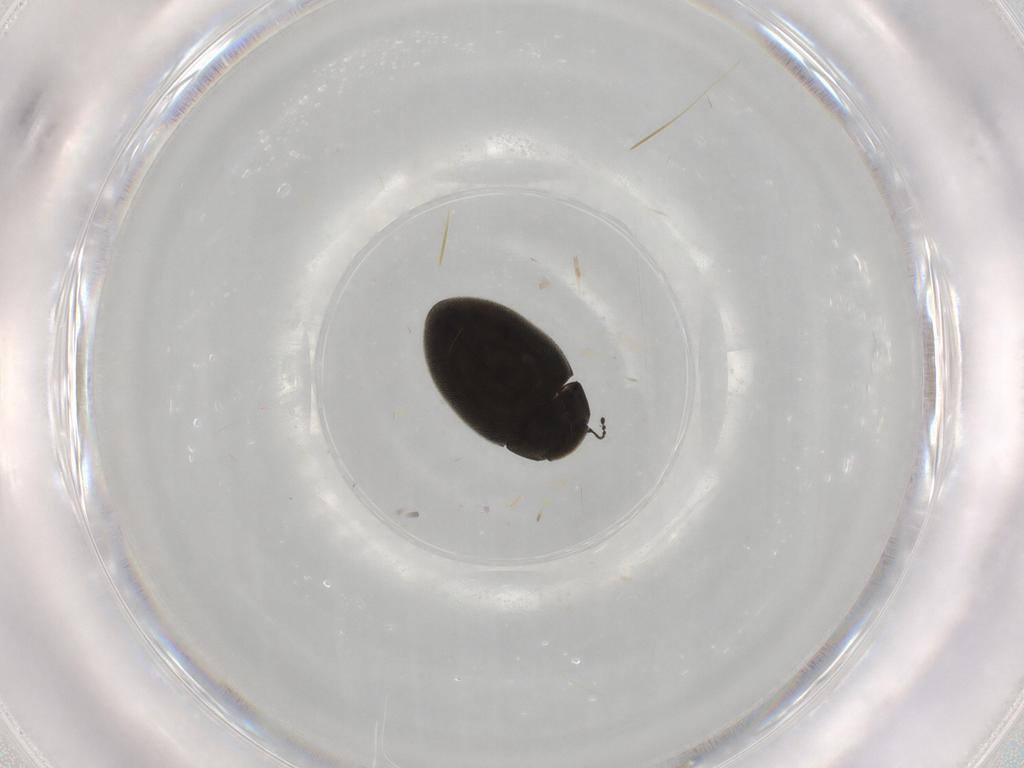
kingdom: Animalia
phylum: Arthropoda
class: Insecta
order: Coleoptera
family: Limnichidae
